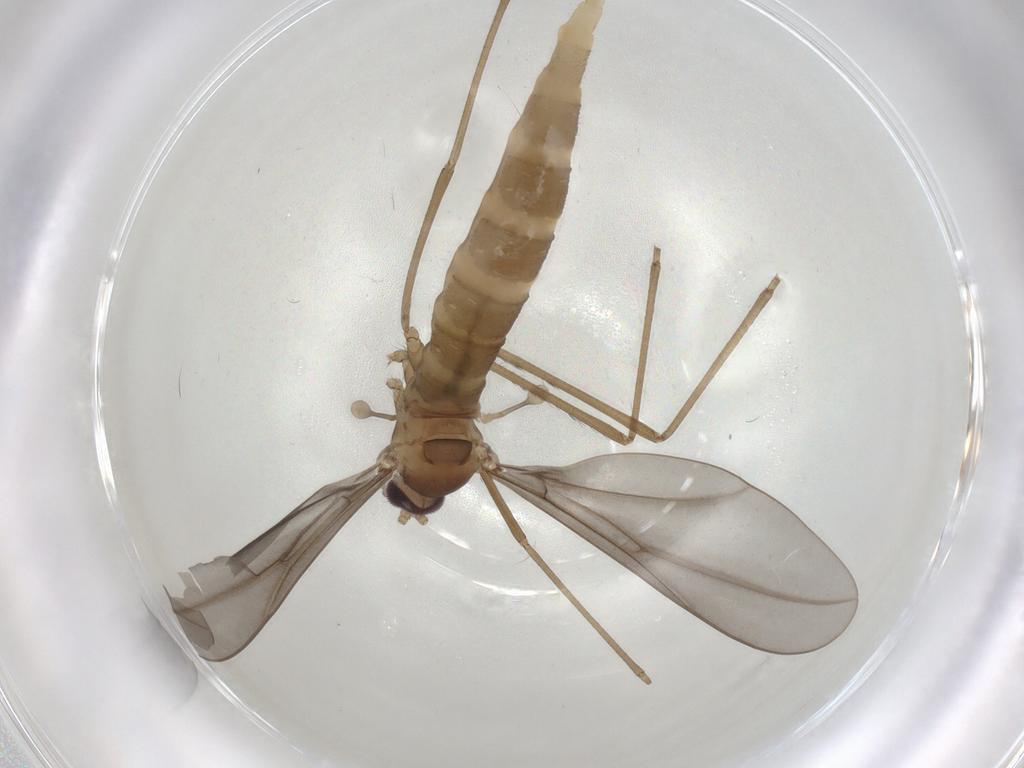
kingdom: Animalia
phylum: Arthropoda
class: Insecta
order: Diptera
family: Cecidomyiidae
